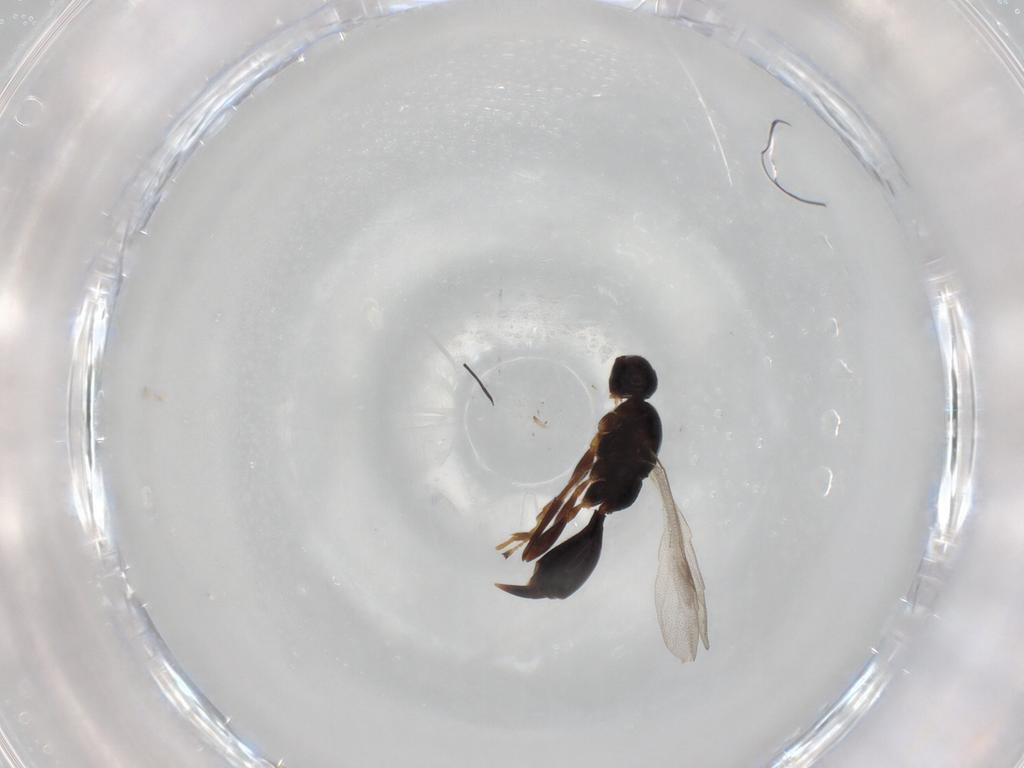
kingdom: Animalia
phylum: Arthropoda
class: Insecta
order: Hymenoptera
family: Proctotrupidae
